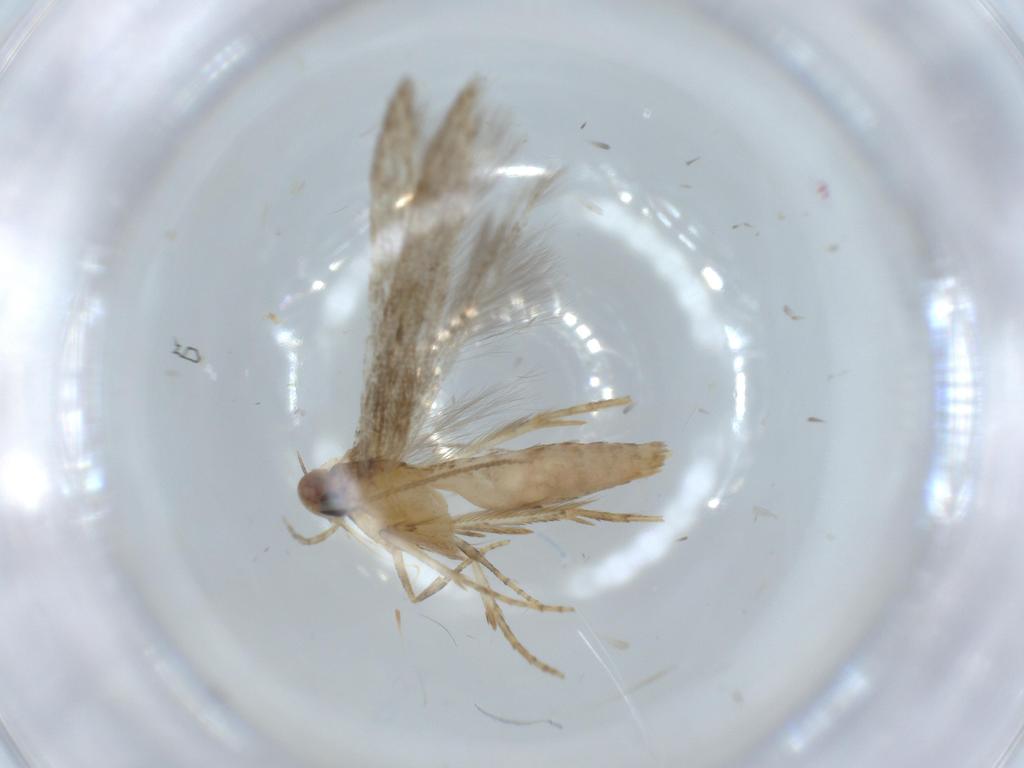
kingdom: Animalia
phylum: Arthropoda
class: Insecta
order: Lepidoptera
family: Heliodinidae
